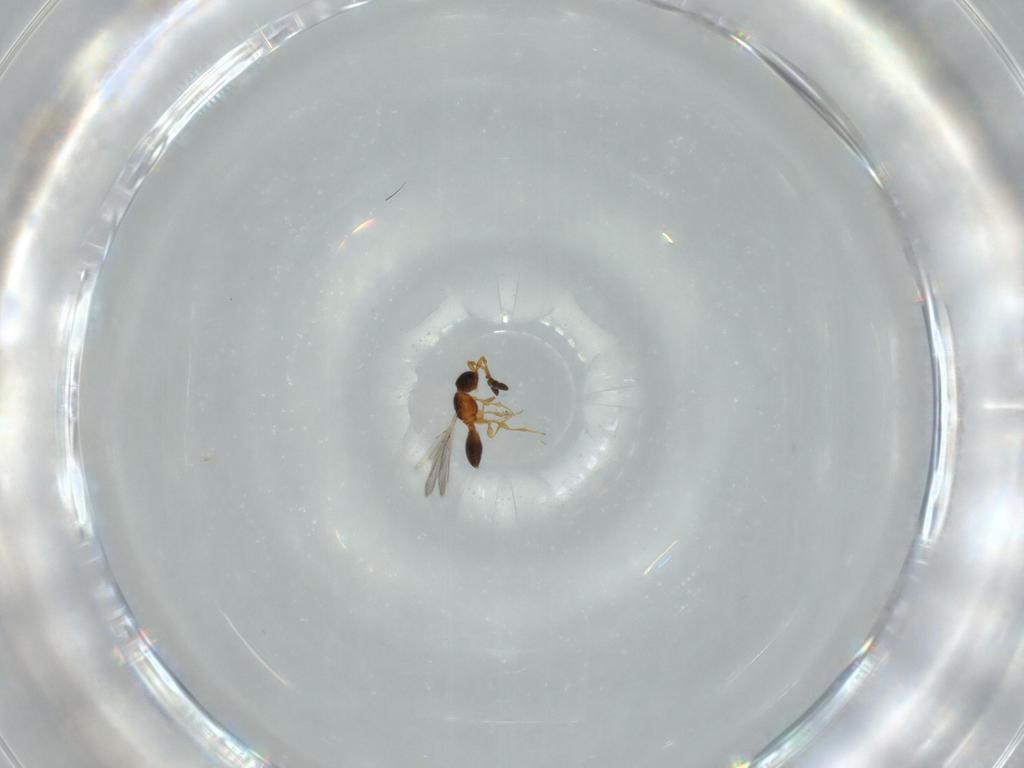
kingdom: Animalia
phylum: Arthropoda
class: Insecta
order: Hymenoptera
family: Diapriidae
